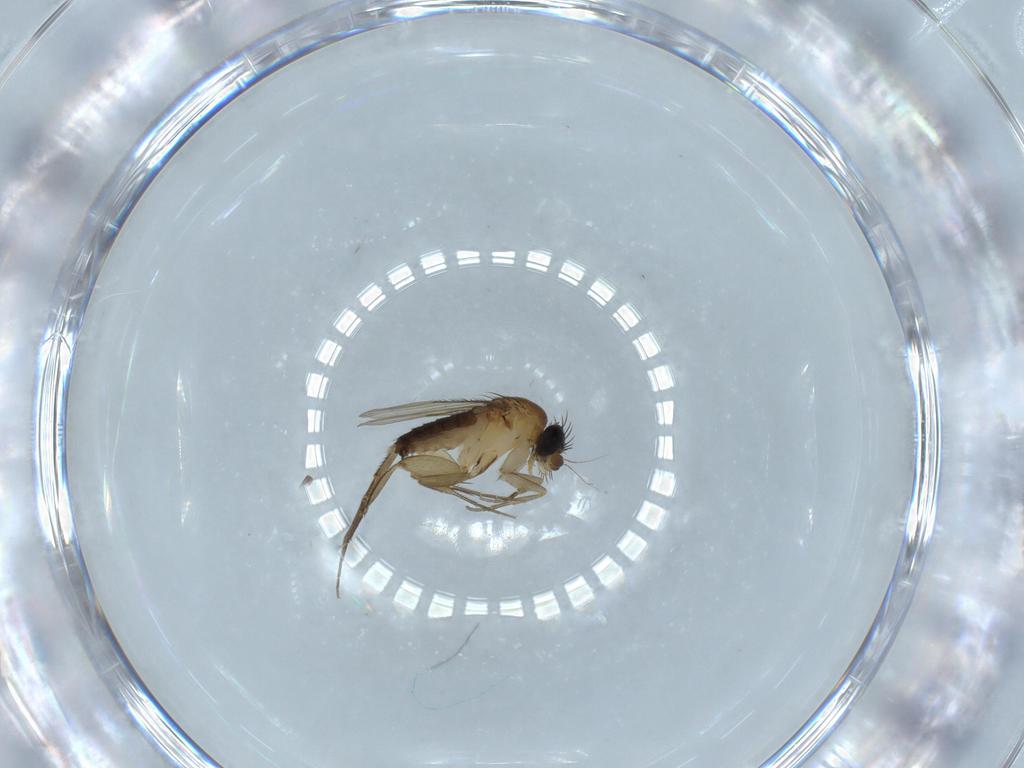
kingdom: Animalia
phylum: Arthropoda
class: Insecta
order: Diptera
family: Phoridae
